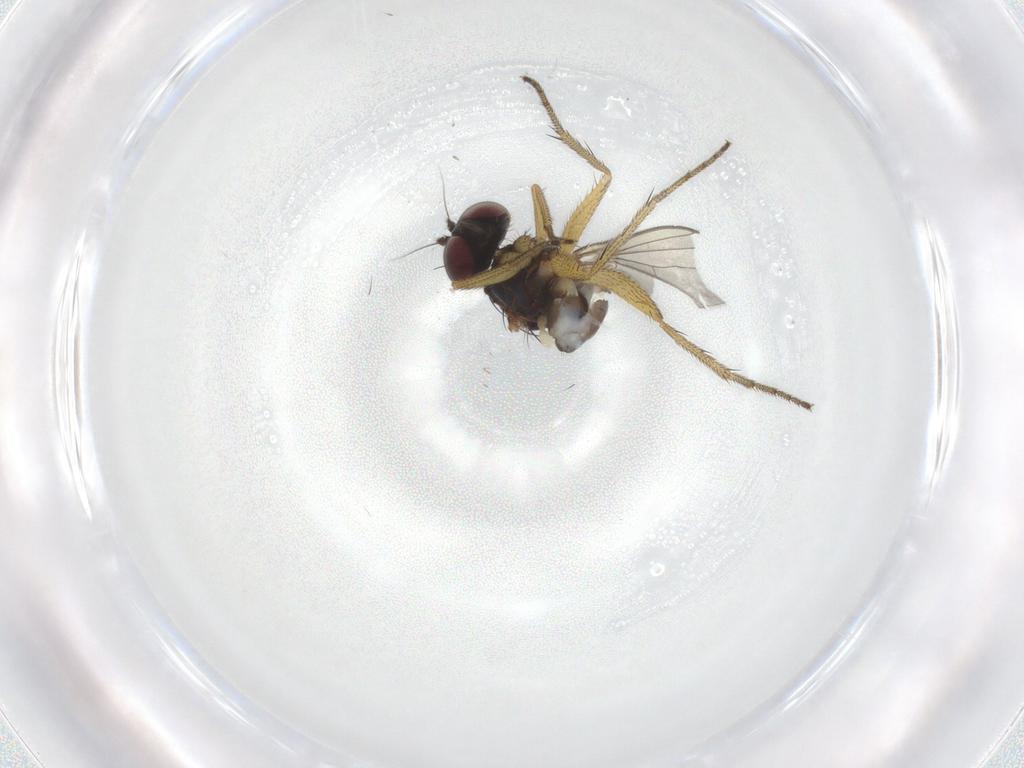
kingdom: Animalia
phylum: Arthropoda
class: Insecta
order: Diptera
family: Dolichopodidae
